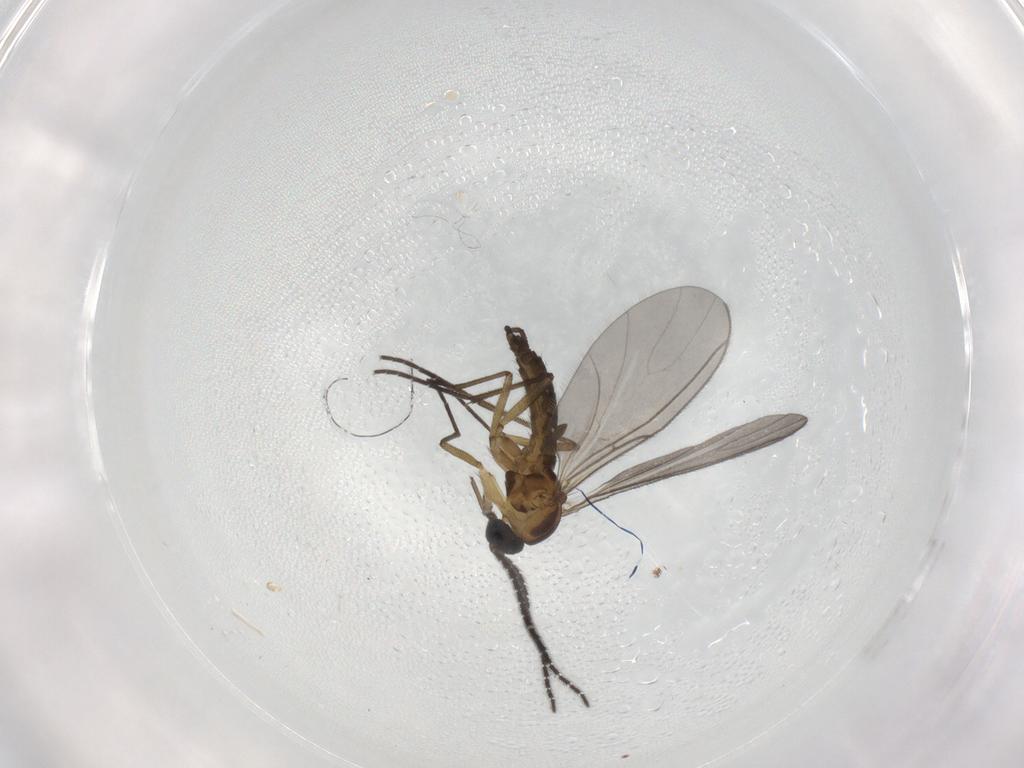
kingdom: Animalia
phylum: Arthropoda
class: Insecta
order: Diptera
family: Sciaridae
